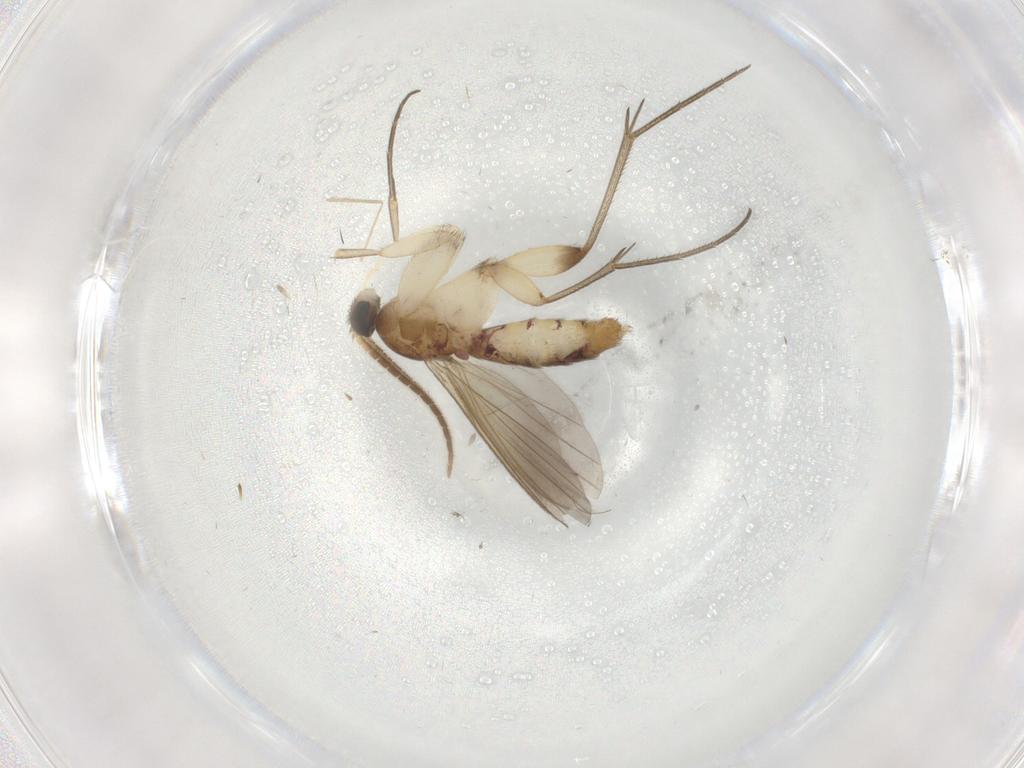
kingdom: Animalia
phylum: Arthropoda
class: Insecta
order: Diptera
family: Mycetophilidae
